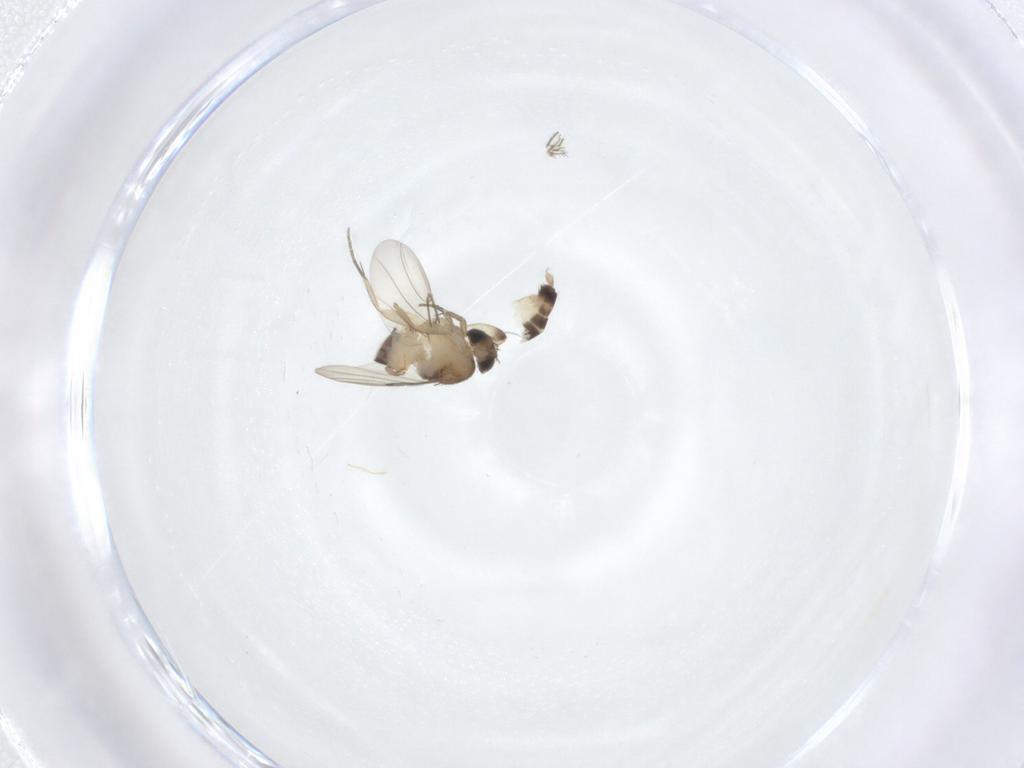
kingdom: Animalia
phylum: Arthropoda
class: Insecta
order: Diptera
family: Phoridae
